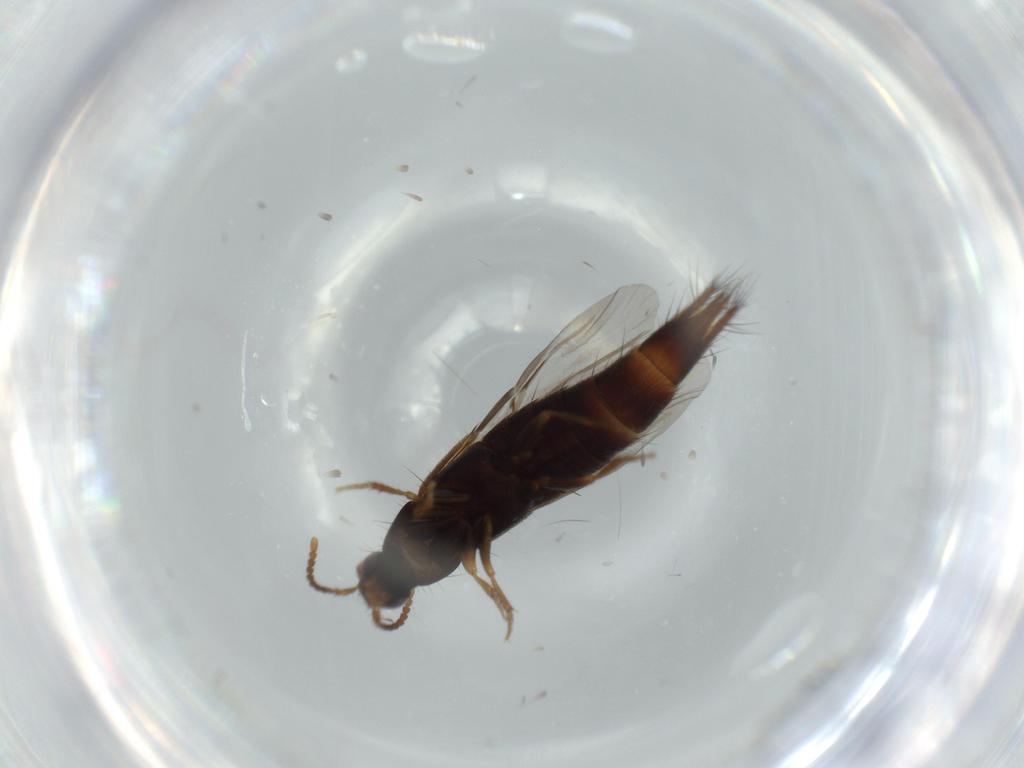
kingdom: Animalia
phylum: Arthropoda
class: Insecta
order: Coleoptera
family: Staphylinidae
